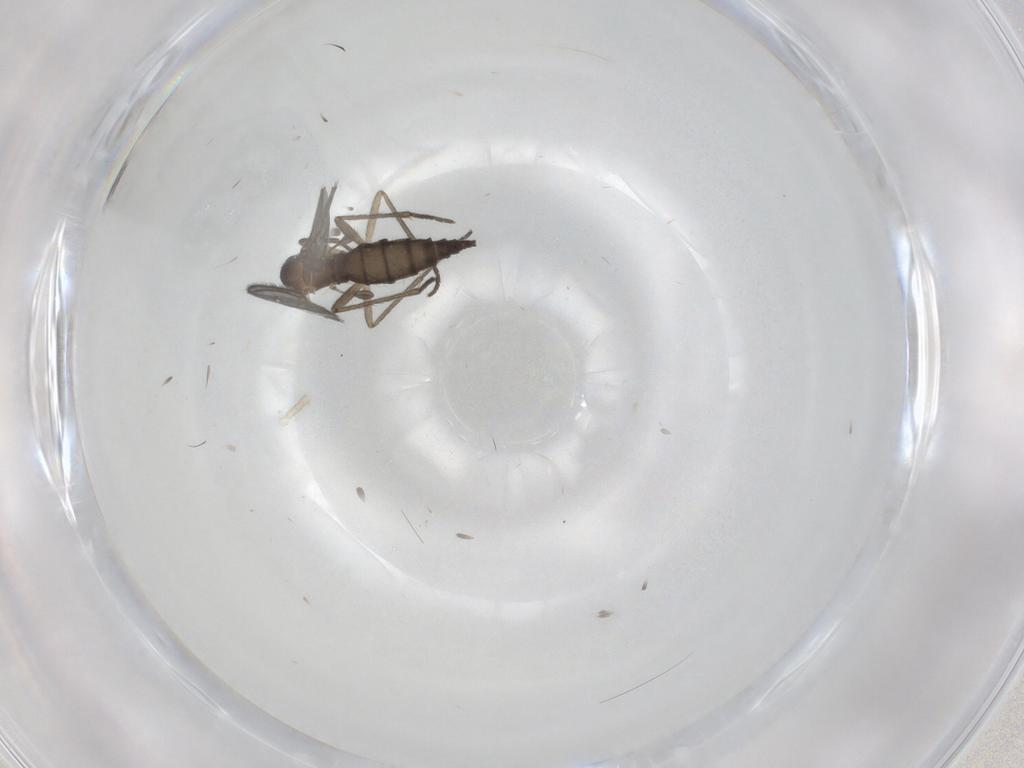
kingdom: Animalia
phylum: Arthropoda
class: Insecta
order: Diptera
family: Sciaridae
